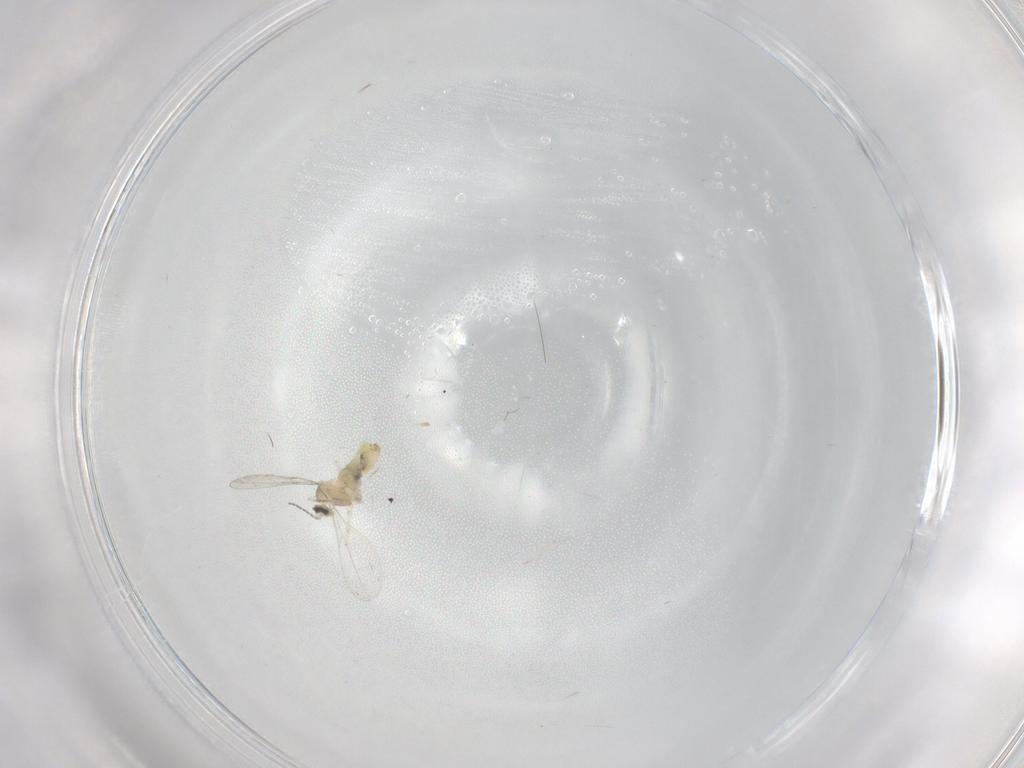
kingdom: Animalia
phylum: Arthropoda
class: Insecta
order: Diptera
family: Cecidomyiidae
